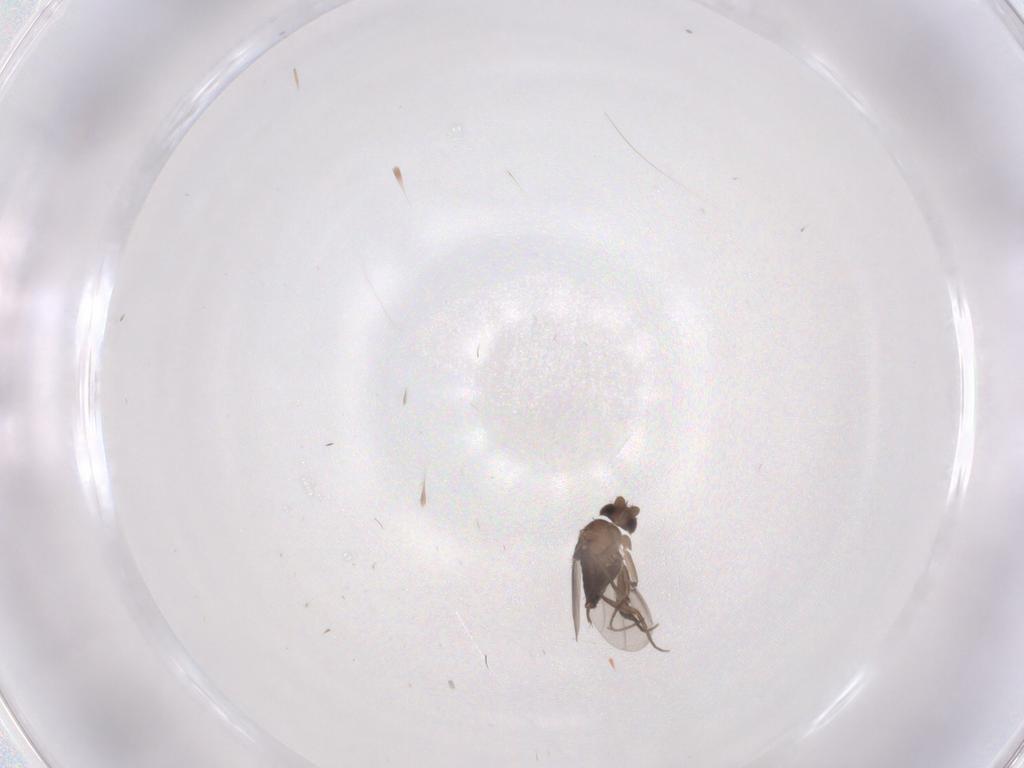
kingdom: Animalia
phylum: Arthropoda
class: Insecta
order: Diptera
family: Phoridae
